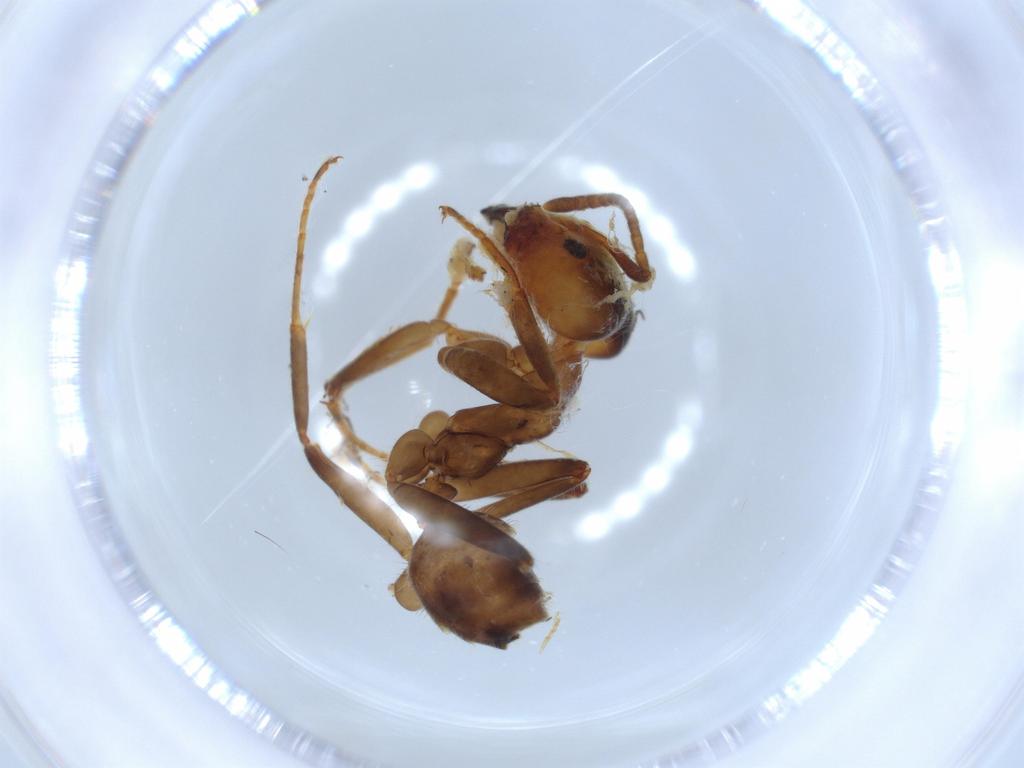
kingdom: Animalia
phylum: Arthropoda
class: Insecta
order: Hymenoptera
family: Formicidae
